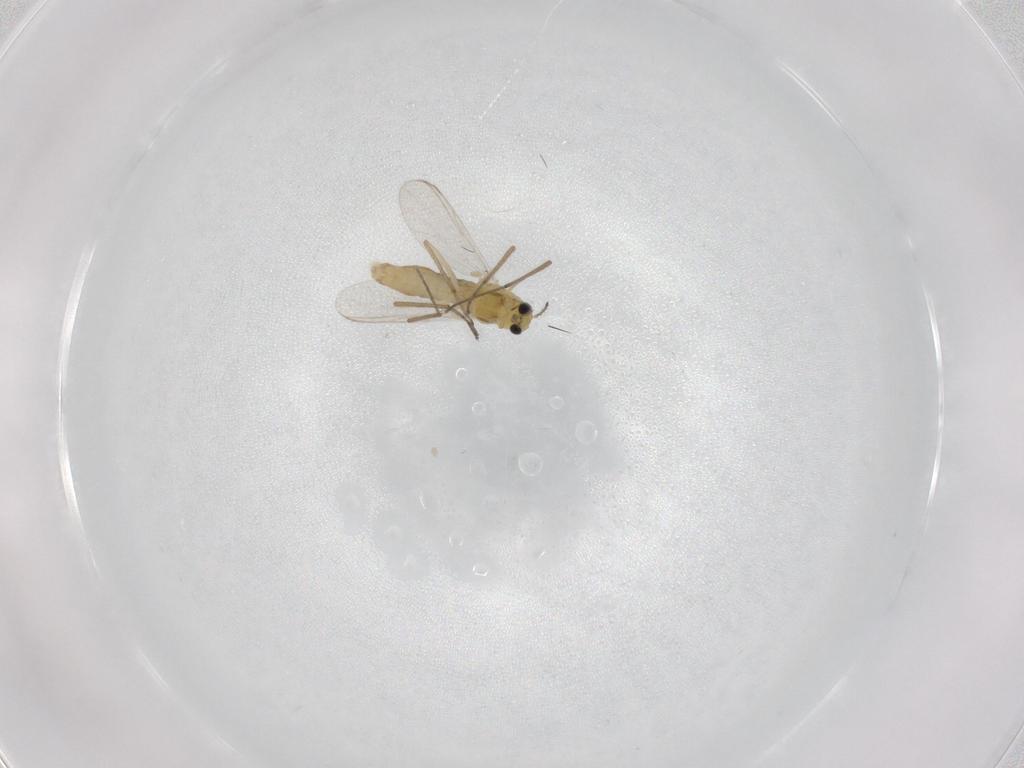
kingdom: Animalia
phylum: Arthropoda
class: Insecta
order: Diptera
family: Chironomidae
